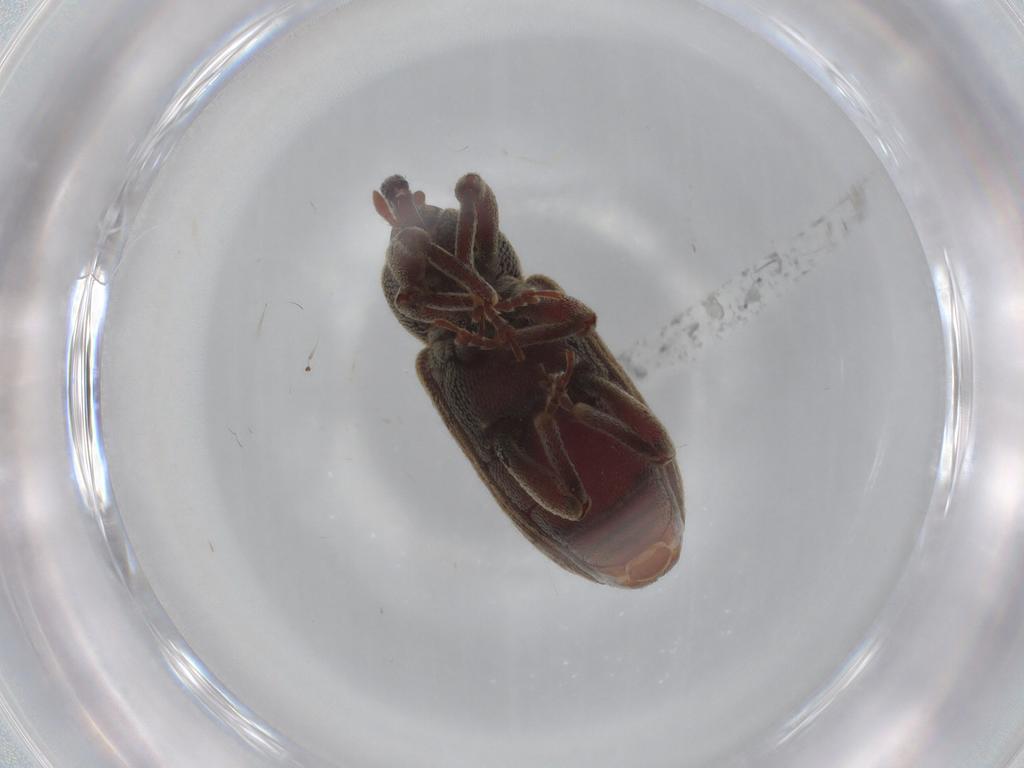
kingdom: Animalia
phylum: Arthropoda
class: Insecta
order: Coleoptera
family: Curculionidae
